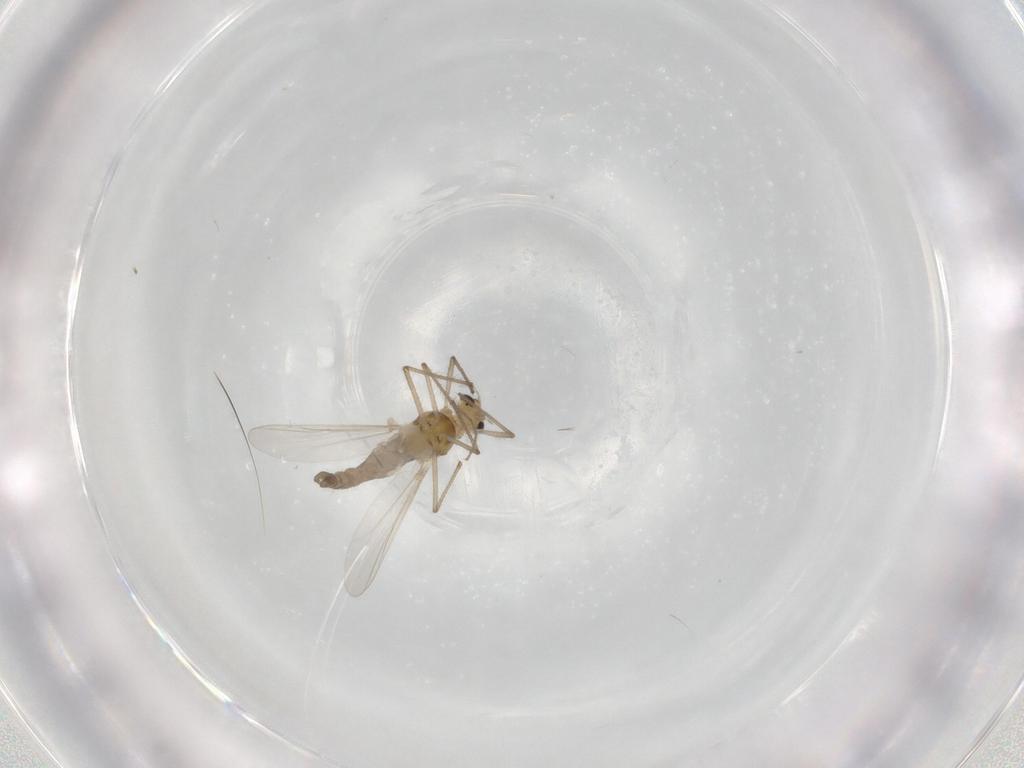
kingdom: Animalia
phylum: Arthropoda
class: Insecta
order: Diptera
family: Chironomidae
